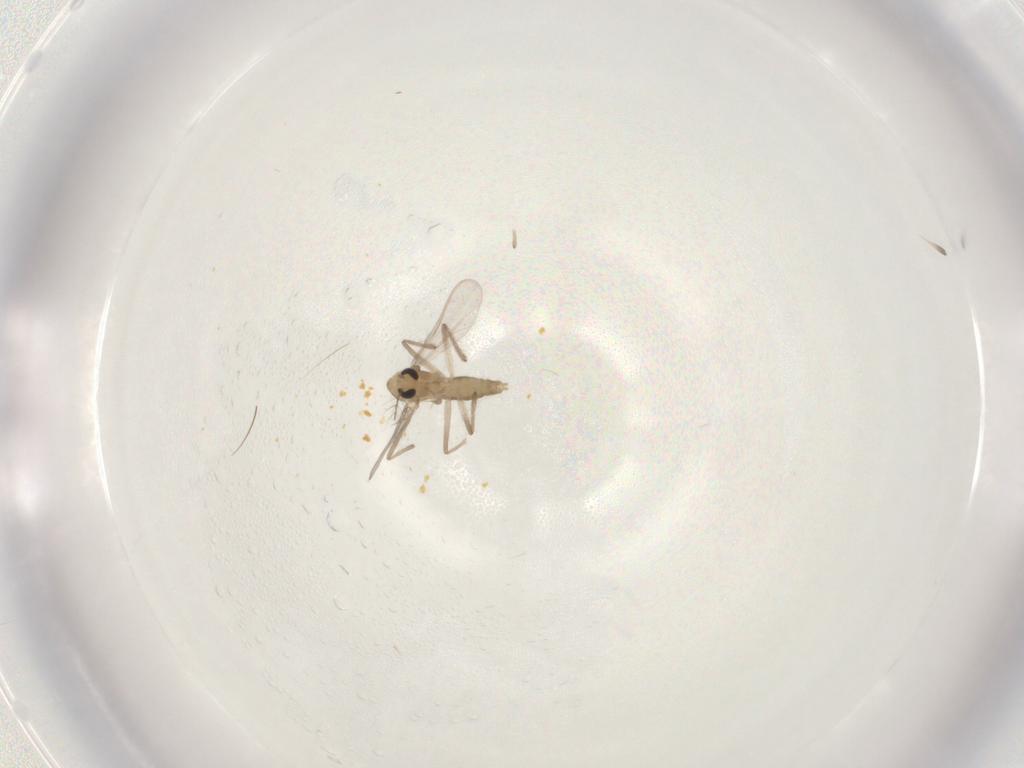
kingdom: Animalia
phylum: Arthropoda
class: Insecta
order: Diptera
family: Chironomidae
